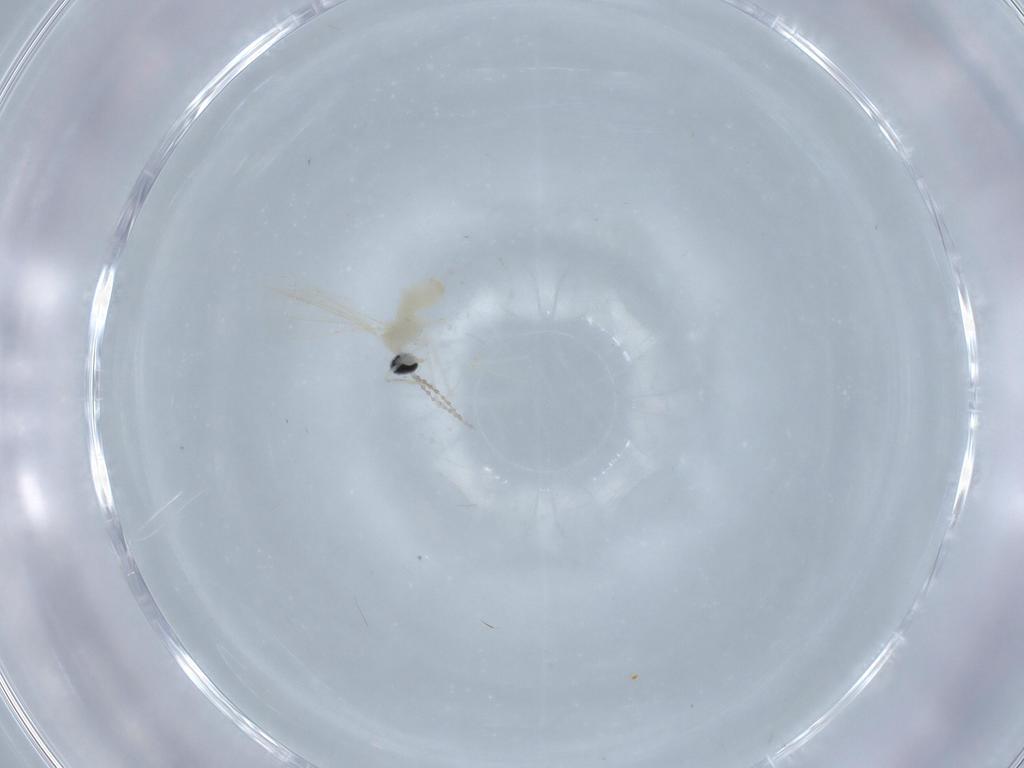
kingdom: Animalia
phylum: Arthropoda
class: Insecta
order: Diptera
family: Cecidomyiidae
